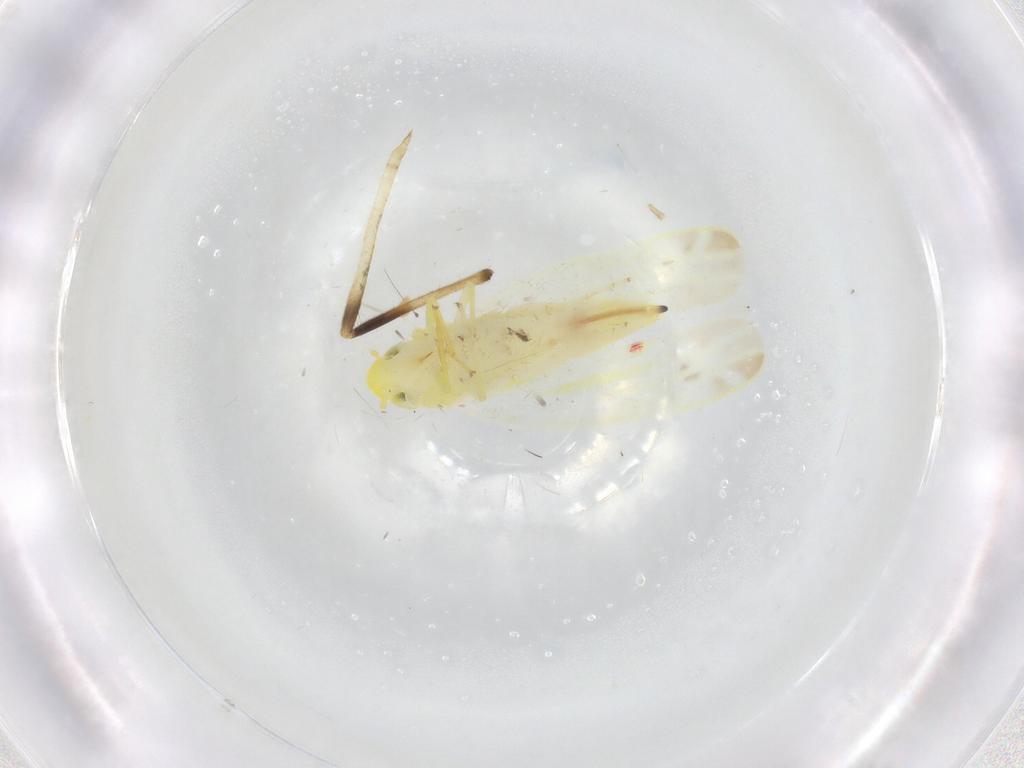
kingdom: Animalia
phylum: Arthropoda
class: Insecta
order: Hemiptera
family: Cicadellidae
